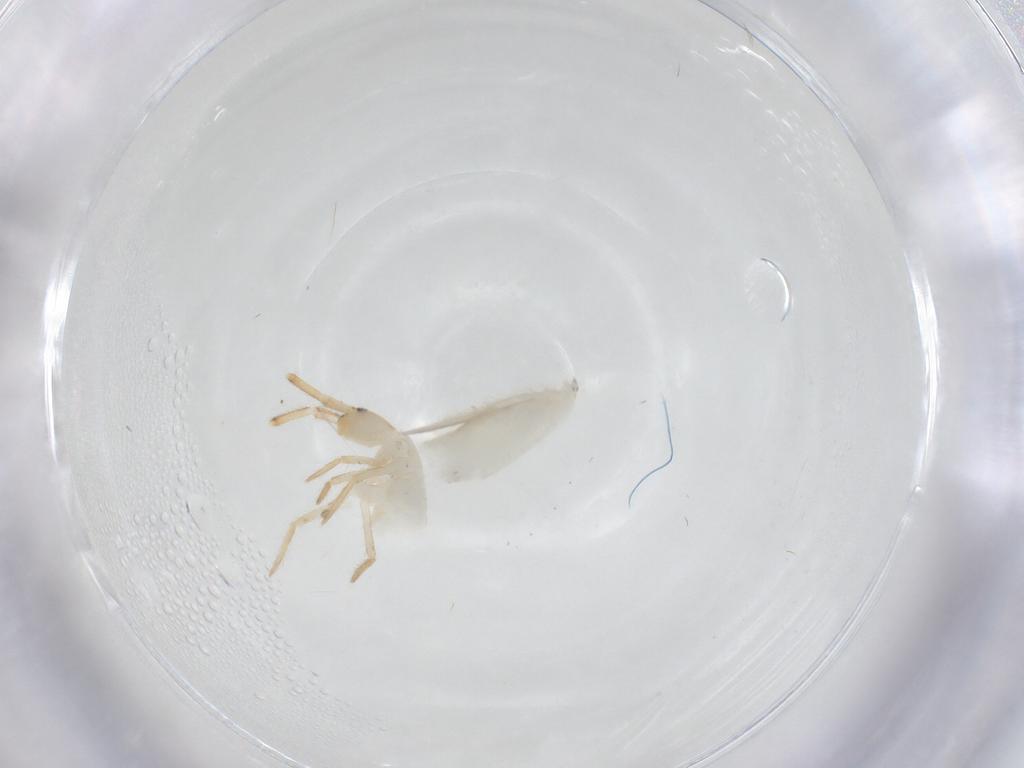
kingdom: Animalia
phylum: Arthropoda
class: Collembola
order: Entomobryomorpha
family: Entomobryidae
